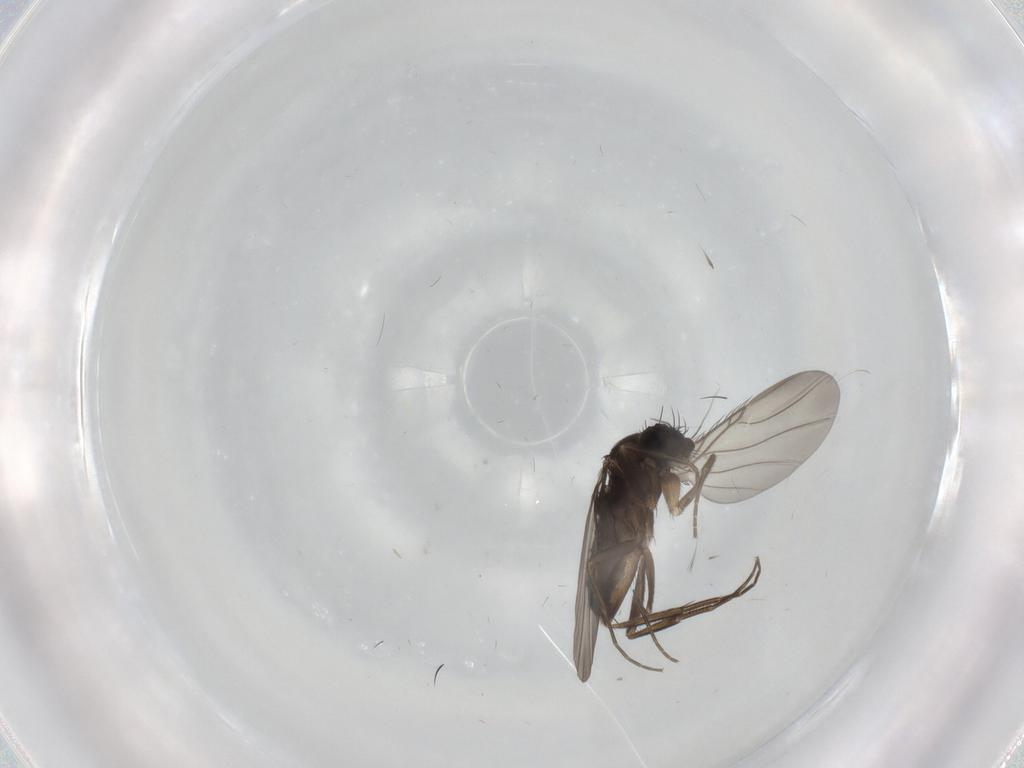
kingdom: Animalia
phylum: Arthropoda
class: Insecta
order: Diptera
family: Phoridae
